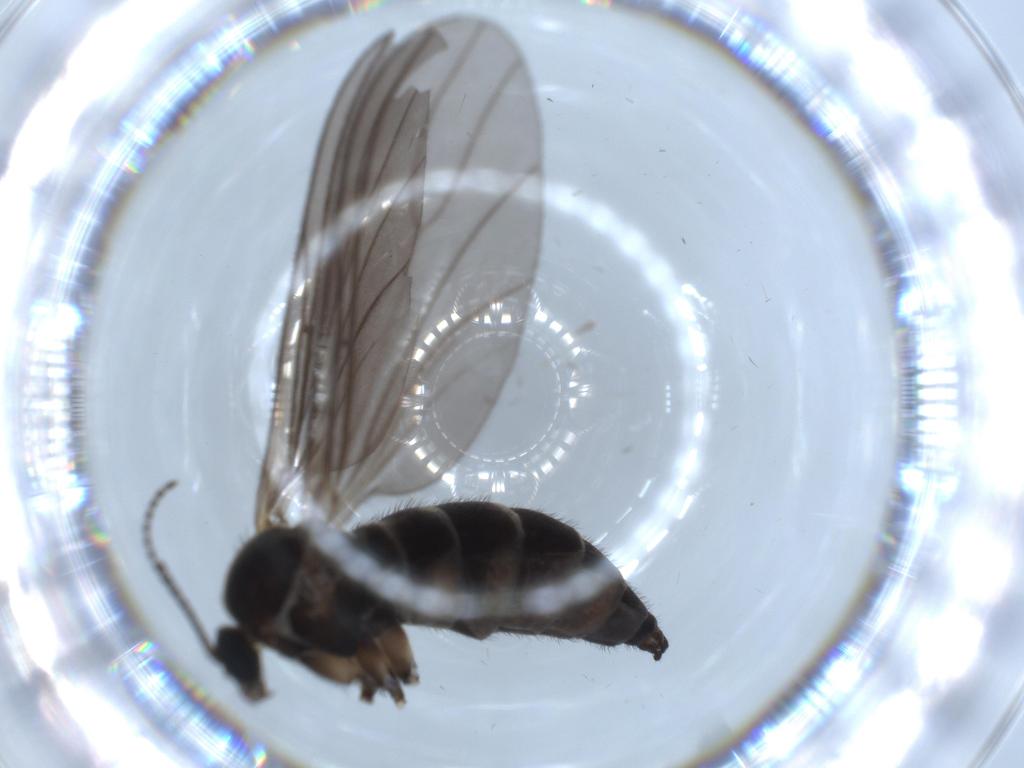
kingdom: Animalia
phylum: Arthropoda
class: Insecta
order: Diptera
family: Sciaridae
